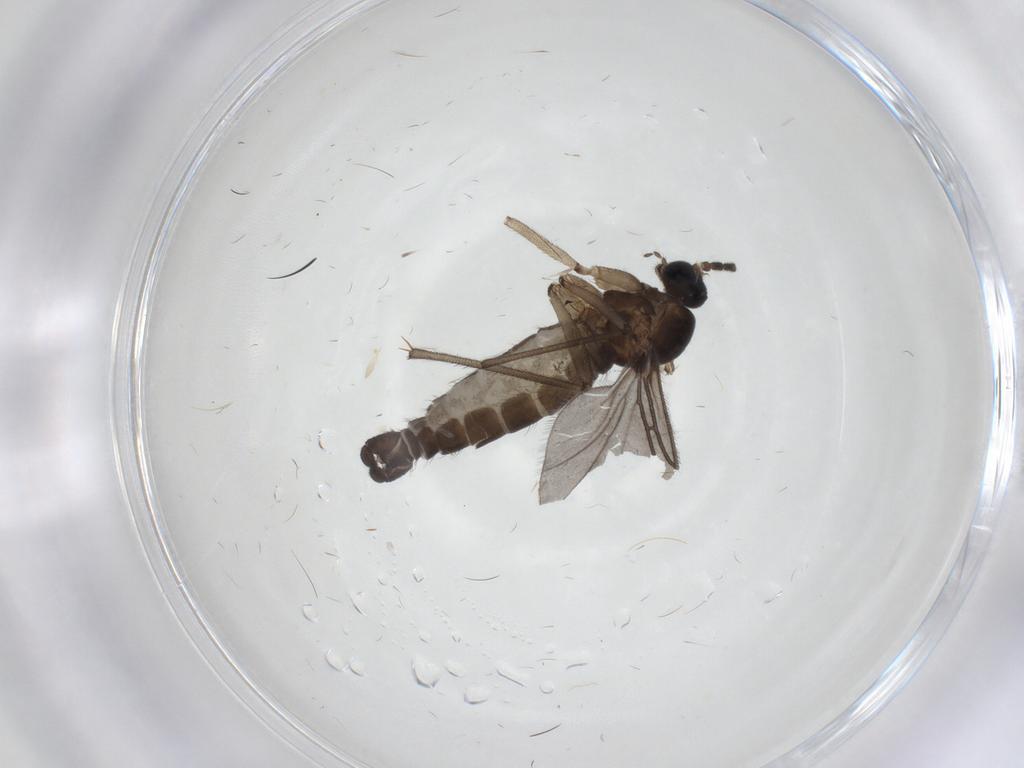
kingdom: Animalia
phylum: Arthropoda
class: Insecta
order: Diptera
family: Sciaridae
